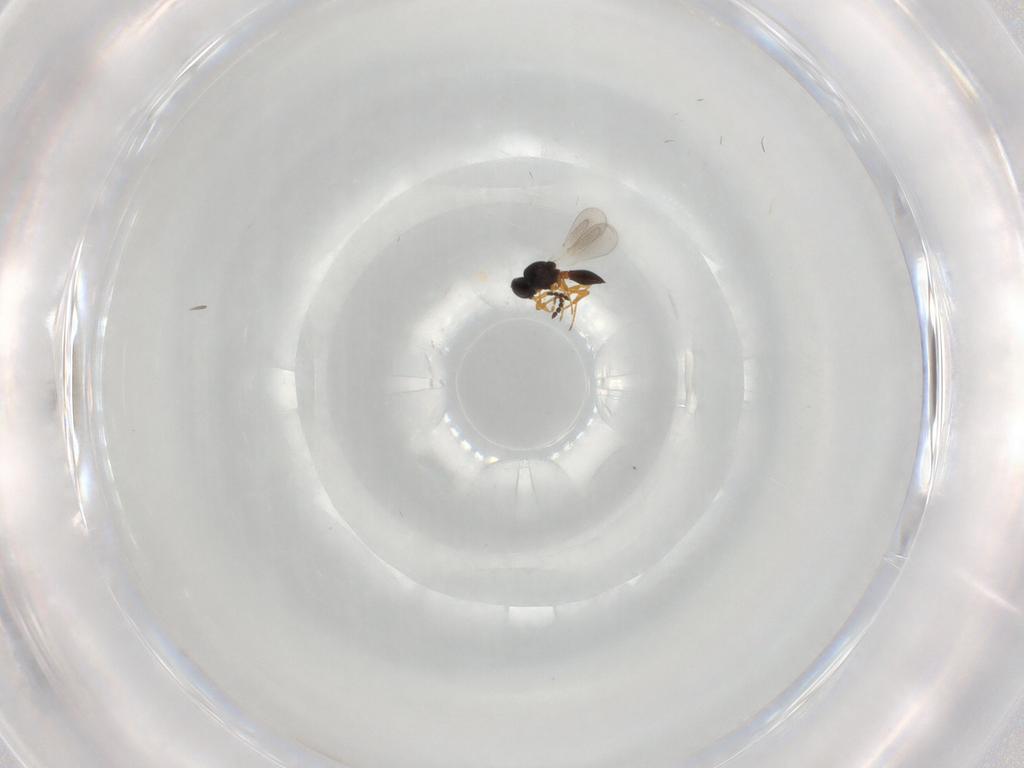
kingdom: Animalia
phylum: Arthropoda
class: Insecta
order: Hymenoptera
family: Platygastridae
